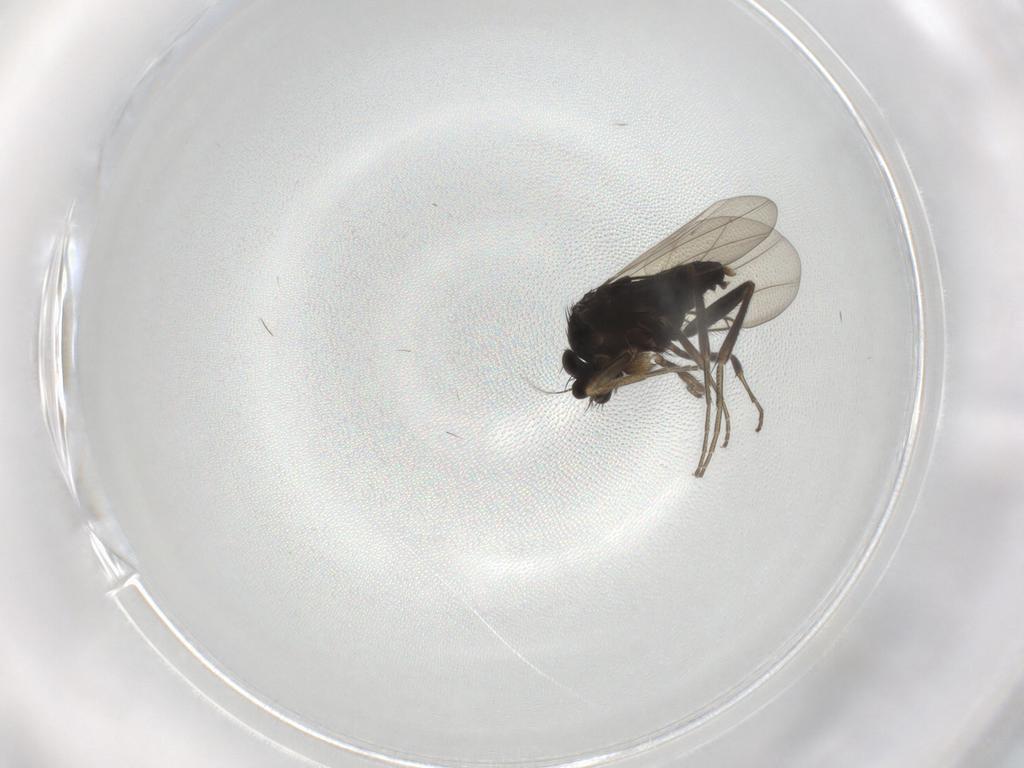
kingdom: Animalia
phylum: Arthropoda
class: Insecta
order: Diptera
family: Phoridae
